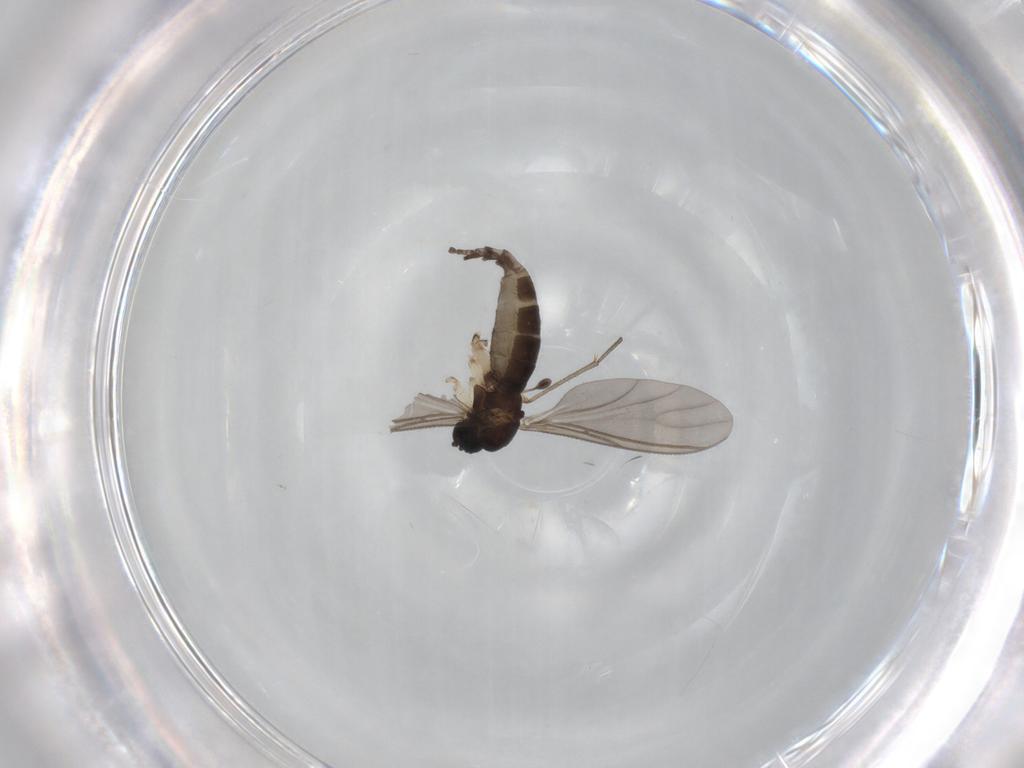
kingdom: Animalia
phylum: Arthropoda
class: Insecta
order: Diptera
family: Sciaridae
